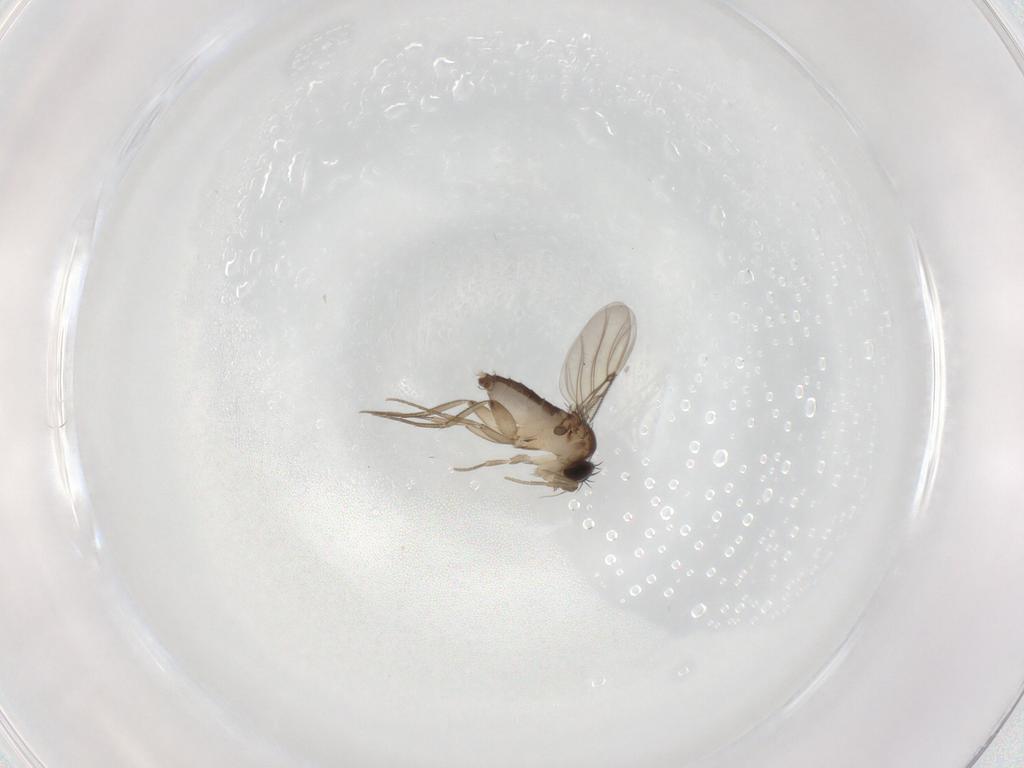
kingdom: Animalia
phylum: Arthropoda
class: Insecta
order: Diptera
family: Phoridae
